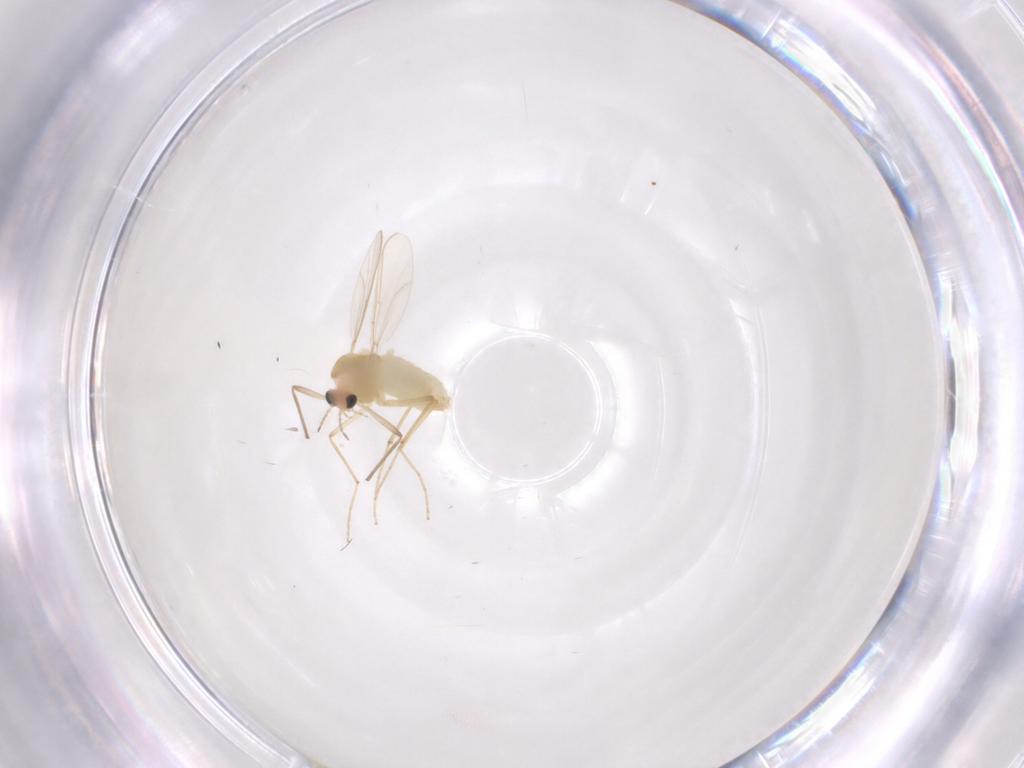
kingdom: Animalia
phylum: Arthropoda
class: Insecta
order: Diptera
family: Chironomidae
